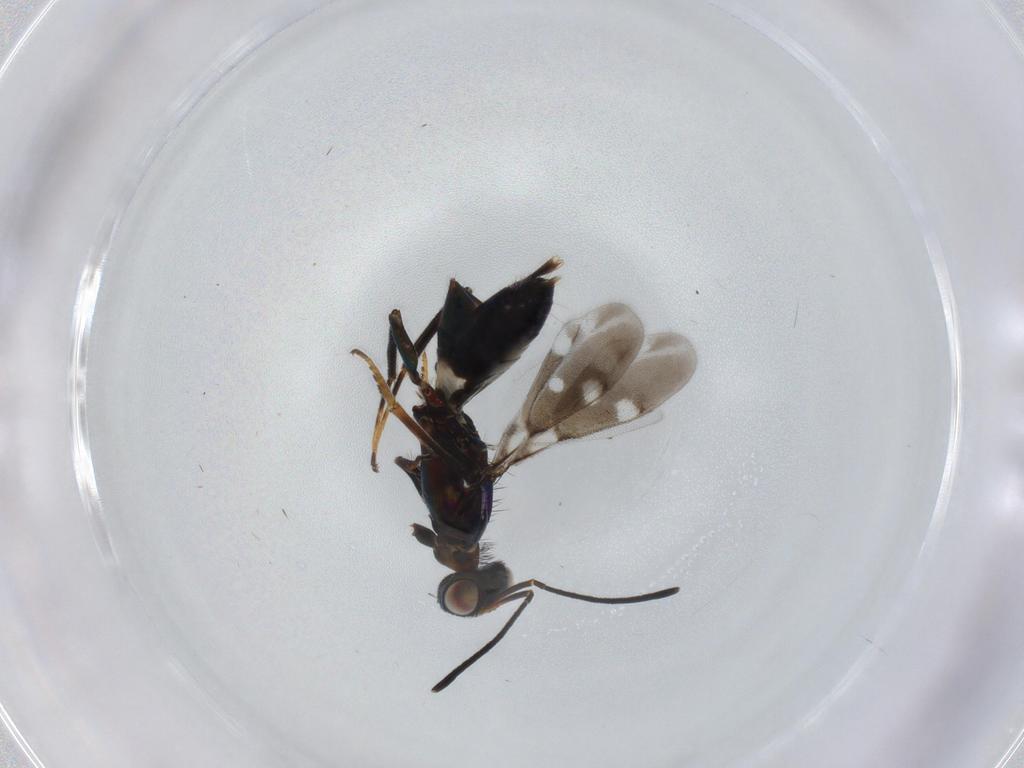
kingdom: Animalia
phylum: Arthropoda
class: Insecta
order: Hymenoptera
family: Eupelmidae
